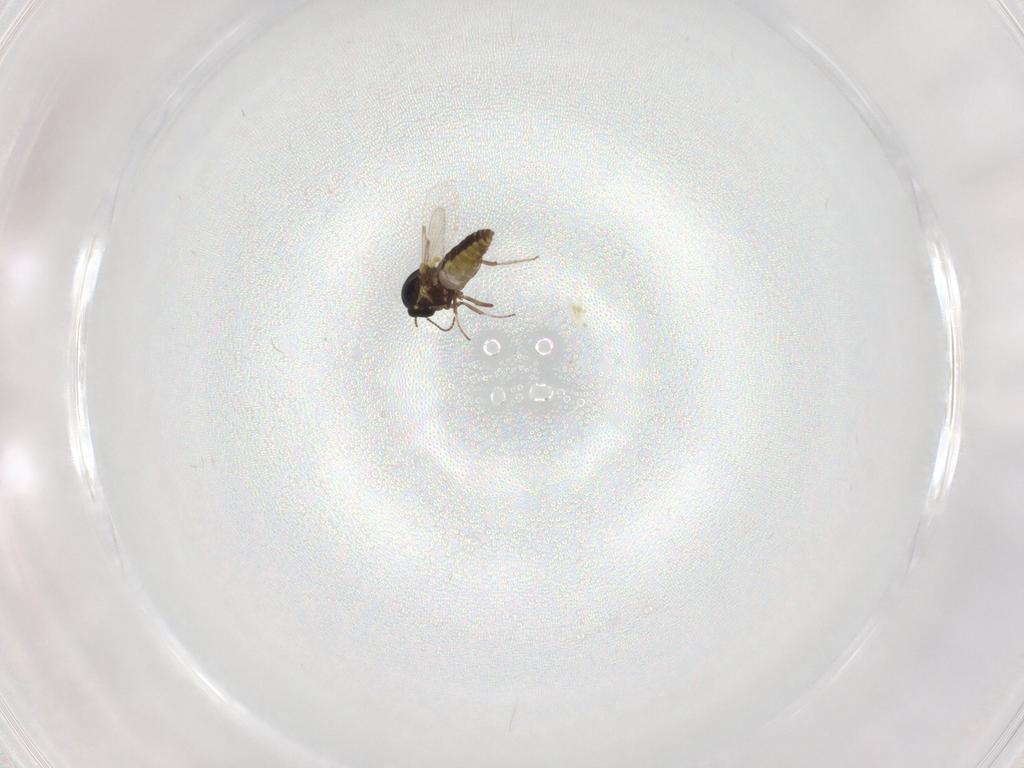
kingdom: Animalia
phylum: Arthropoda
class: Insecta
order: Diptera
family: Ceratopogonidae
